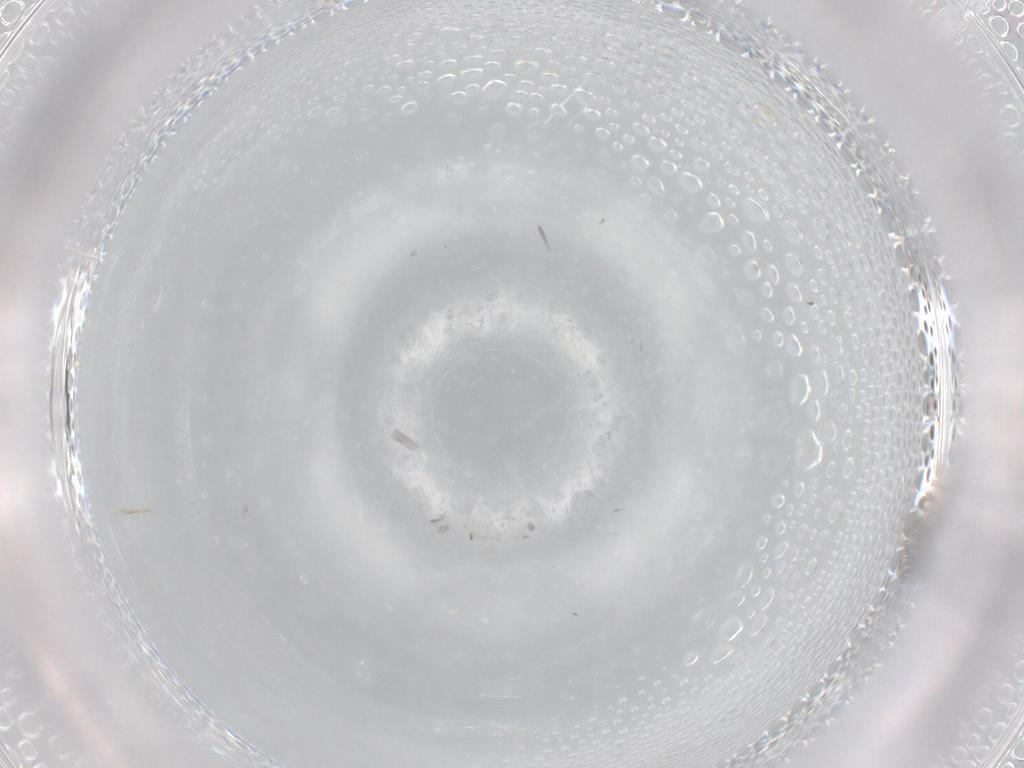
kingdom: Animalia
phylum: Arthropoda
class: Insecta
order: Diptera
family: Cecidomyiidae
